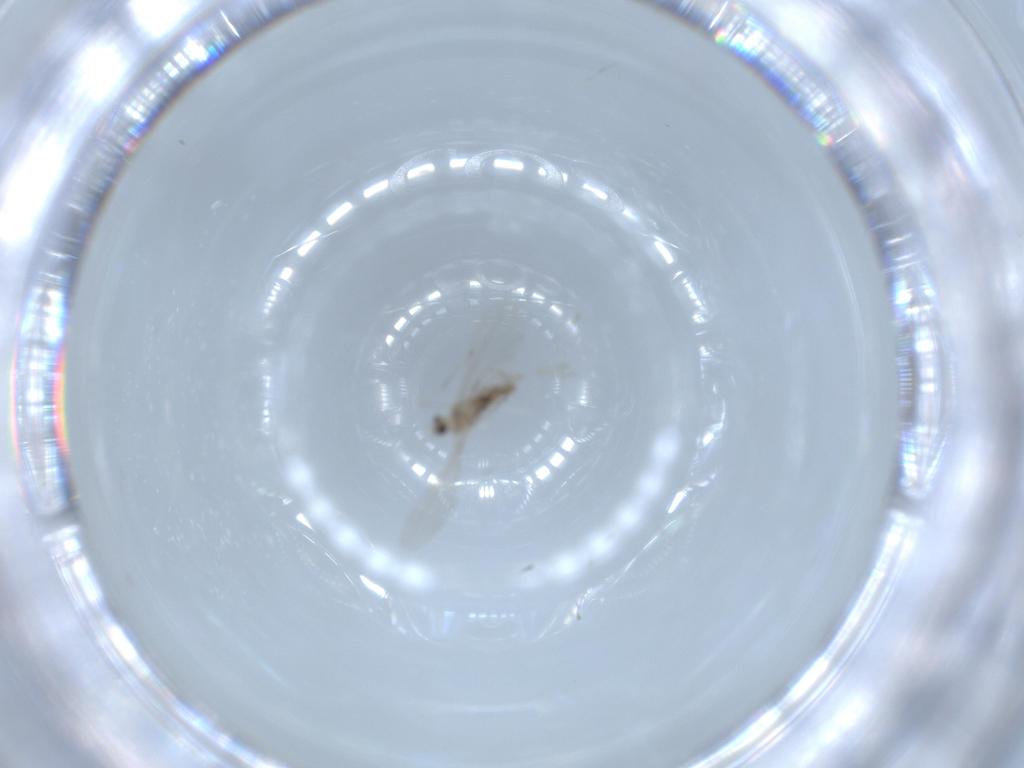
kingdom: Animalia
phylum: Arthropoda
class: Insecta
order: Diptera
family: Cecidomyiidae
